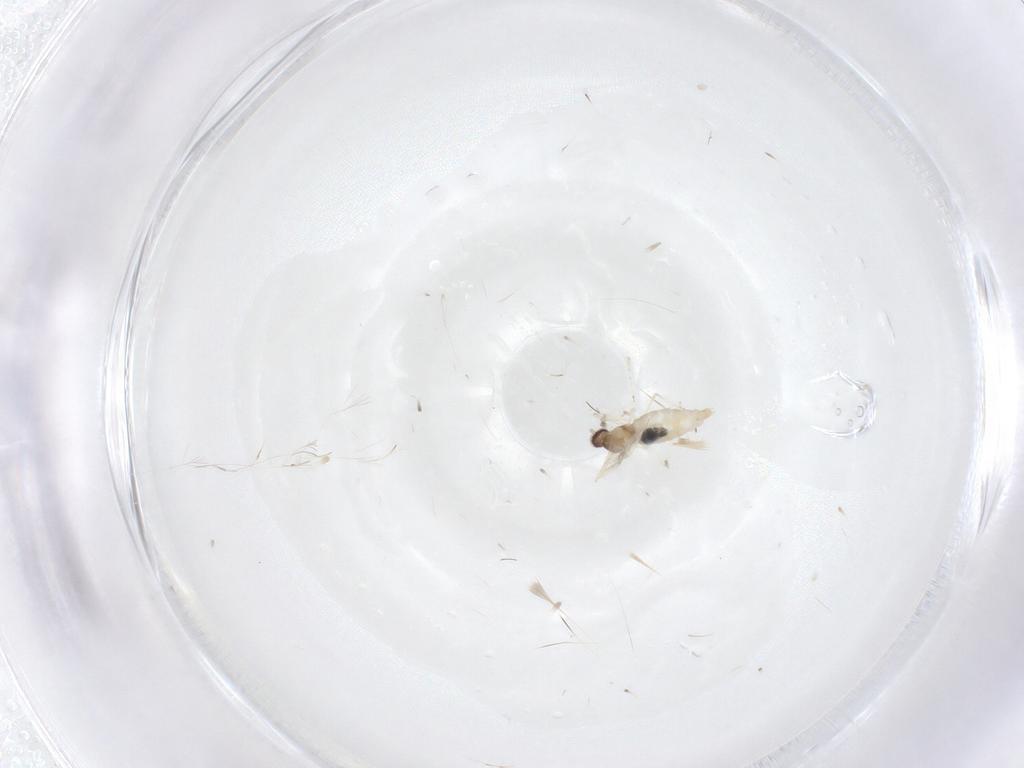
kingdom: Animalia
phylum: Arthropoda
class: Insecta
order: Diptera
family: Cecidomyiidae
